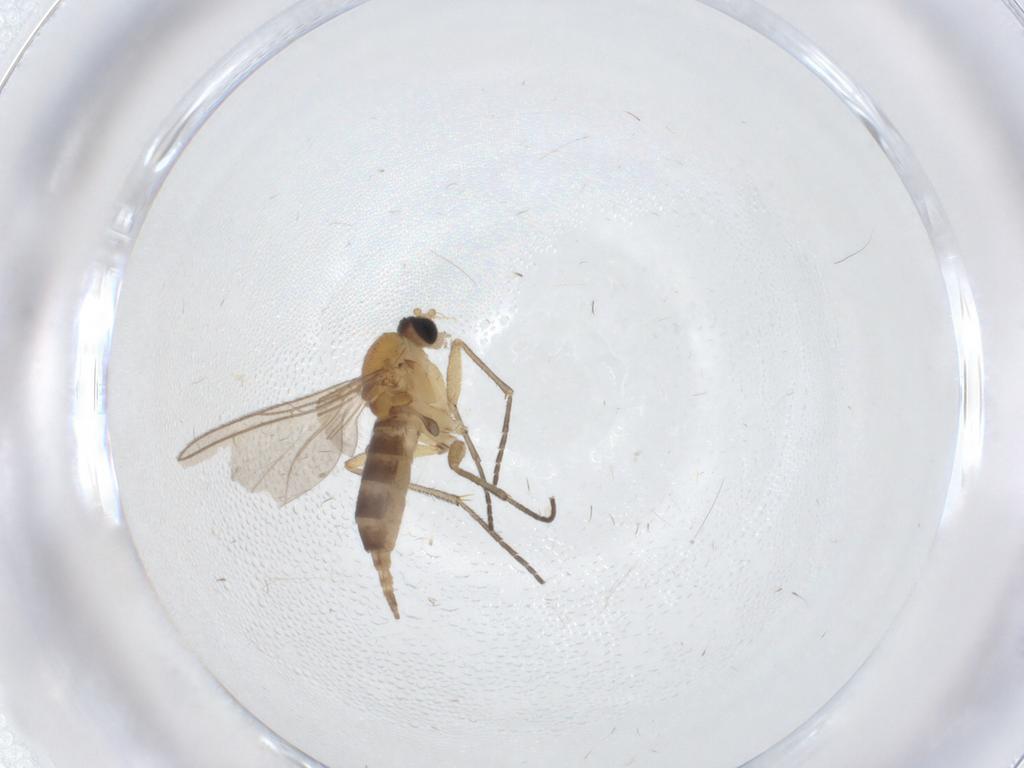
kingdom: Animalia
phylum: Arthropoda
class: Insecta
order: Diptera
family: Sciaridae
